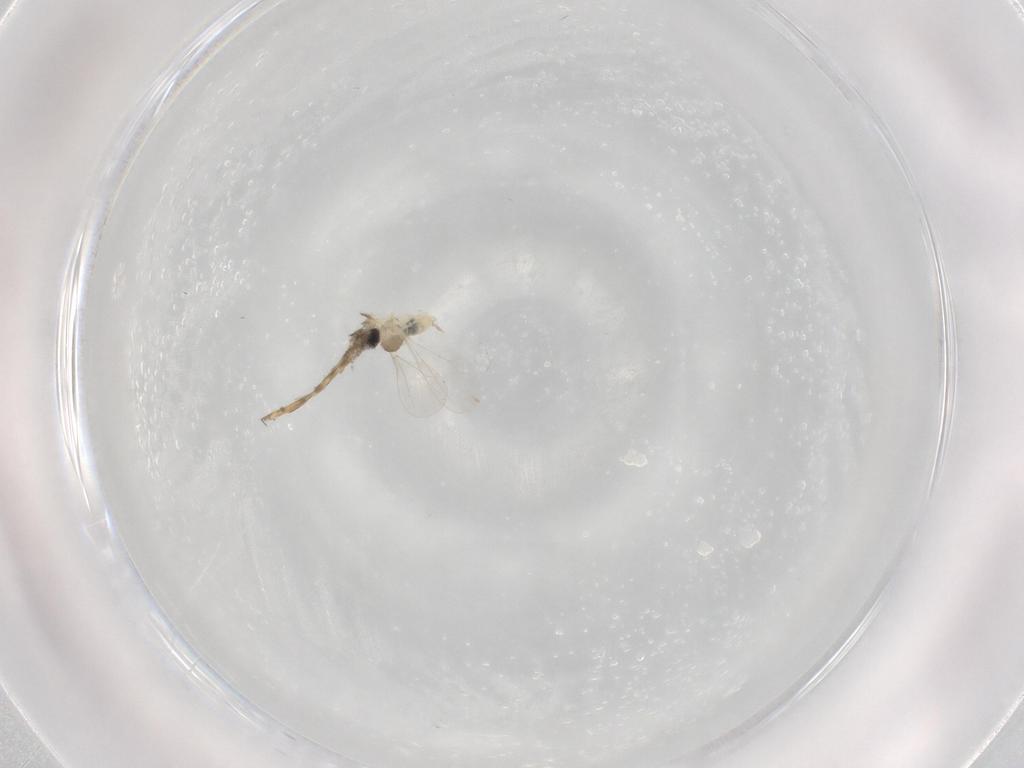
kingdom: Animalia
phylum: Arthropoda
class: Insecta
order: Diptera
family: Cecidomyiidae
